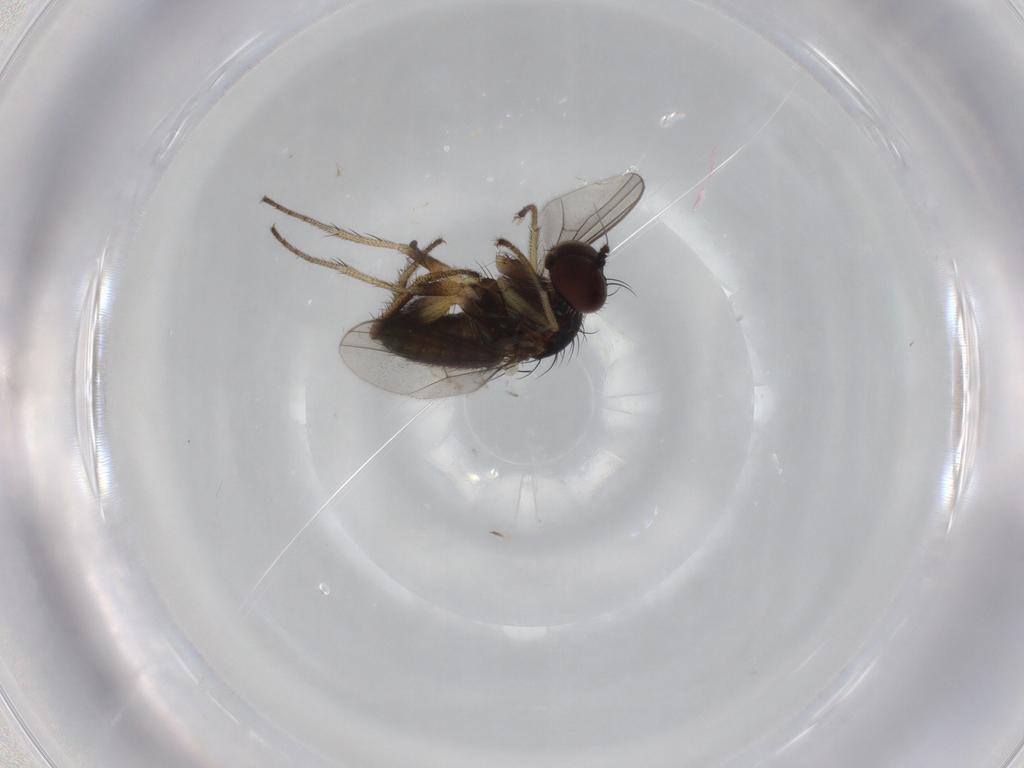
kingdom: Animalia
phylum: Arthropoda
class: Insecta
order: Diptera
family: Dolichopodidae
